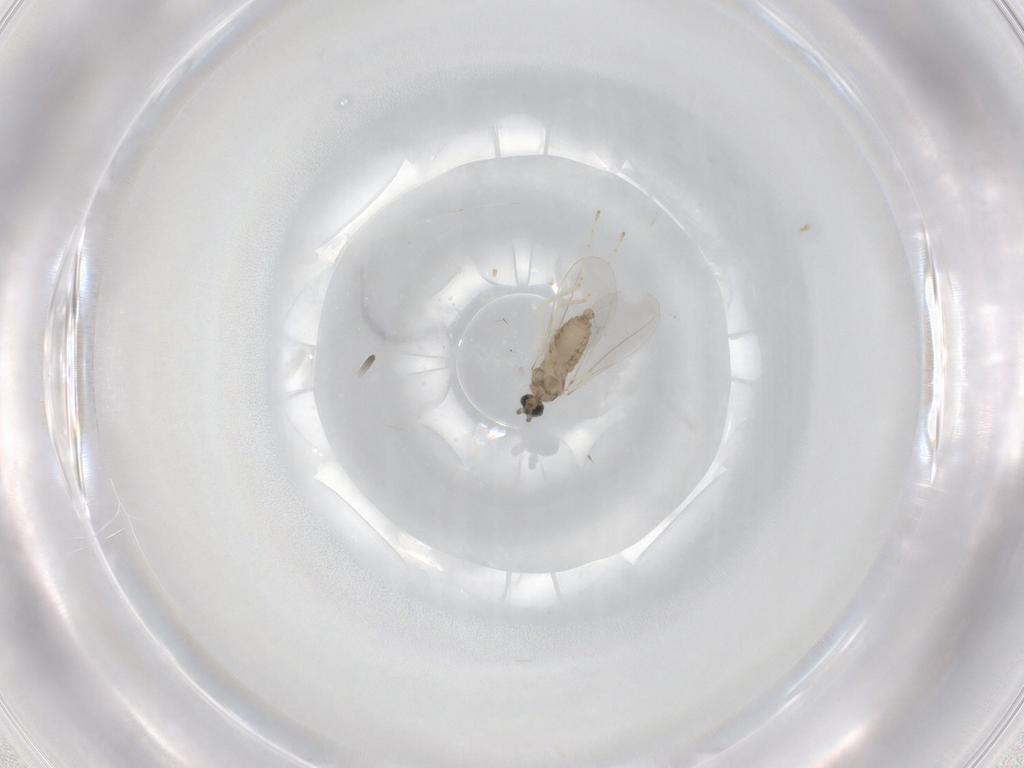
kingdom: Animalia
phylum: Arthropoda
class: Insecta
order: Diptera
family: Cecidomyiidae
